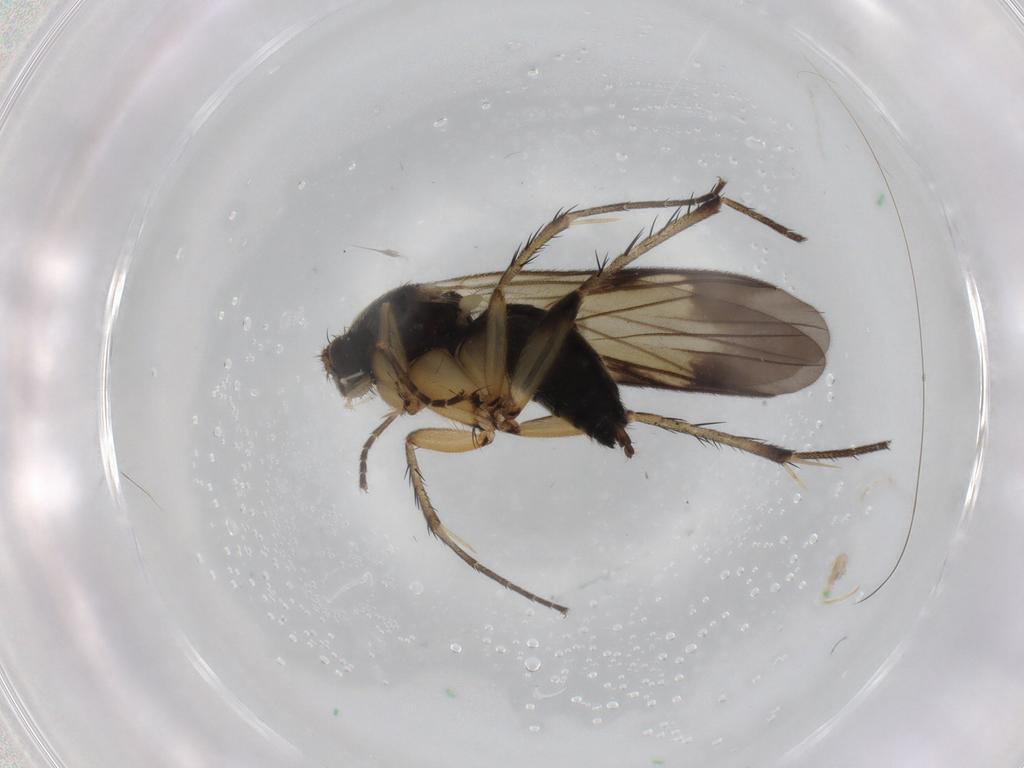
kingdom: Animalia
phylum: Arthropoda
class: Insecta
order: Diptera
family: Mycetophilidae
